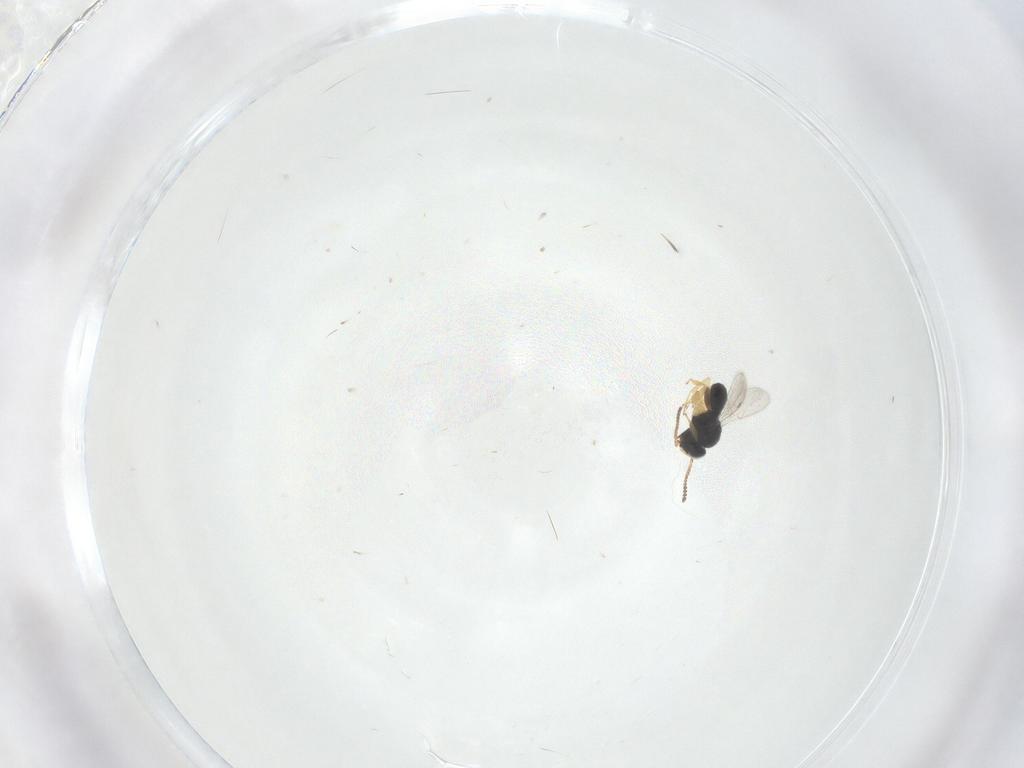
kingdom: Animalia
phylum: Arthropoda
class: Insecta
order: Hymenoptera
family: Scelionidae
